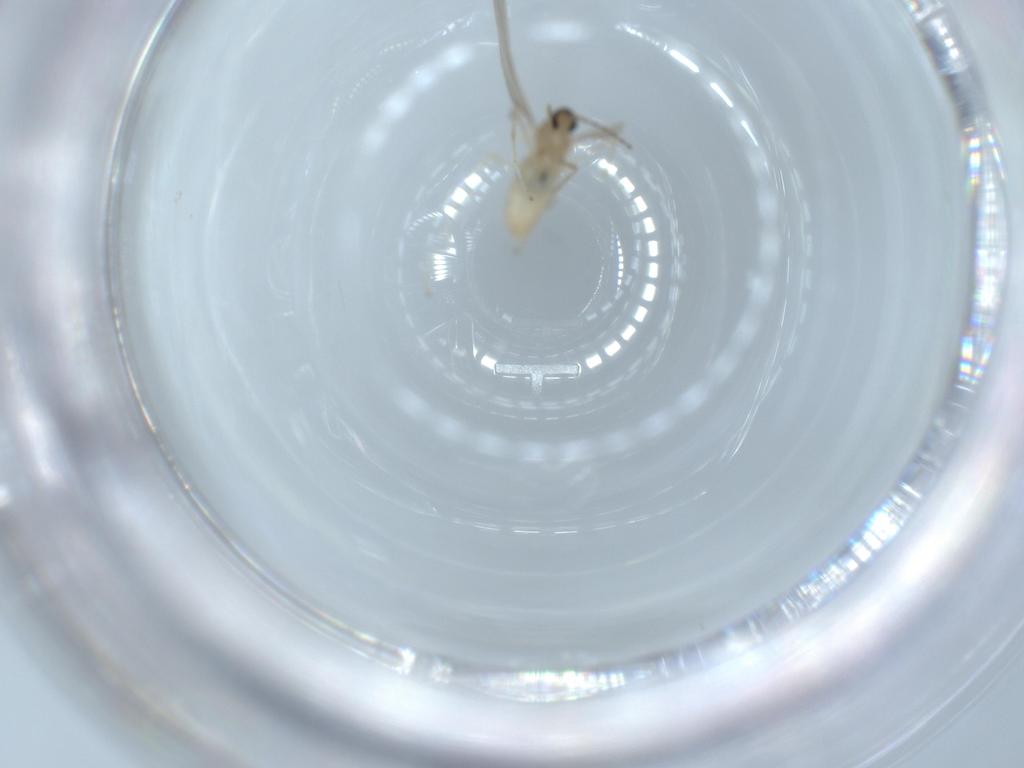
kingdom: Animalia
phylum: Arthropoda
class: Insecta
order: Diptera
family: Cecidomyiidae
